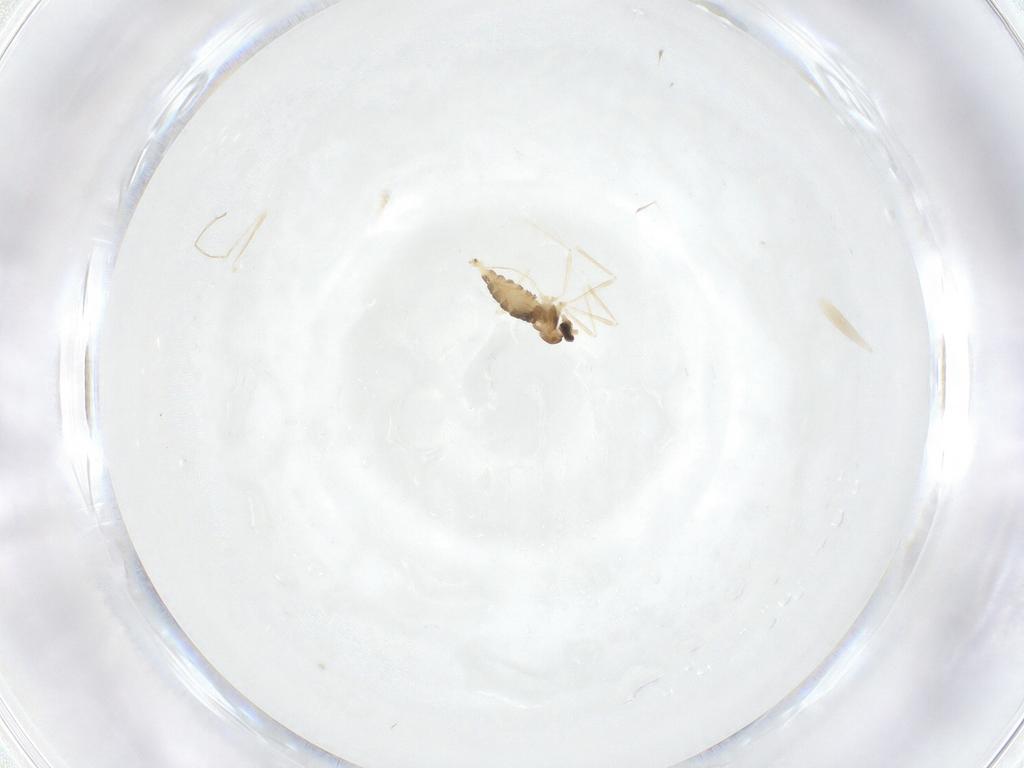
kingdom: Animalia
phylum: Arthropoda
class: Insecta
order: Diptera
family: Cecidomyiidae
